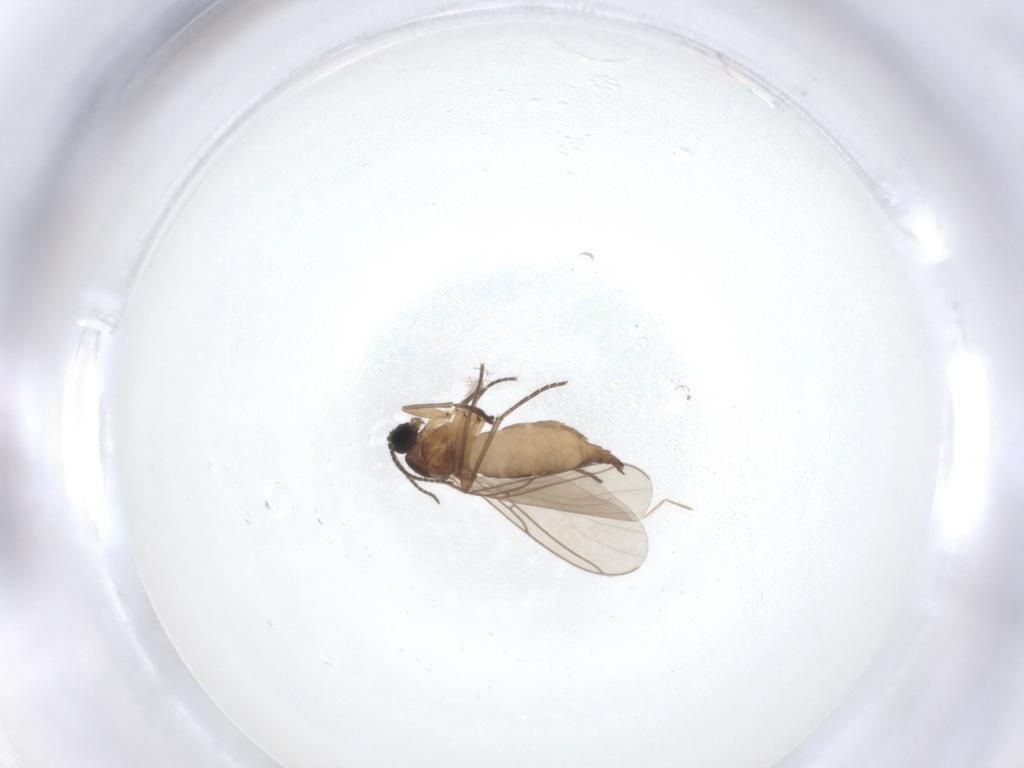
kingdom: Animalia
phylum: Arthropoda
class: Insecta
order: Diptera
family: Sciaridae
